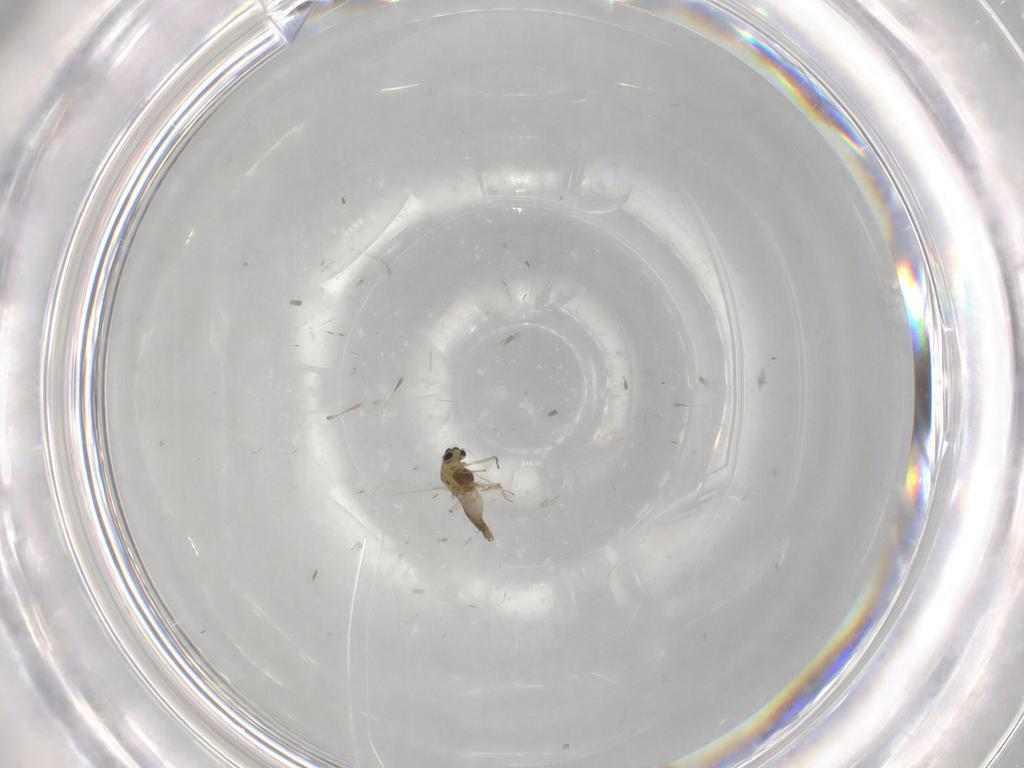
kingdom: Animalia
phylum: Arthropoda
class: Insecta
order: Diptera
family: Chironomidae
